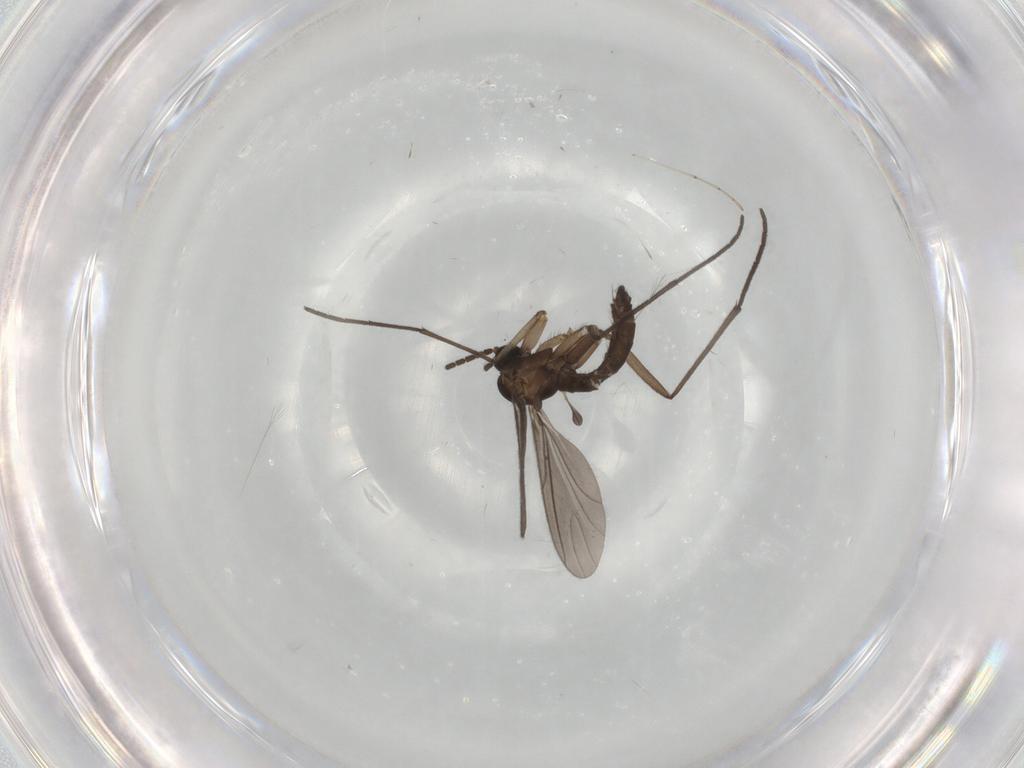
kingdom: Animalia
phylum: Arthropoda
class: Insecta
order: Diptera
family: Sciaridae
